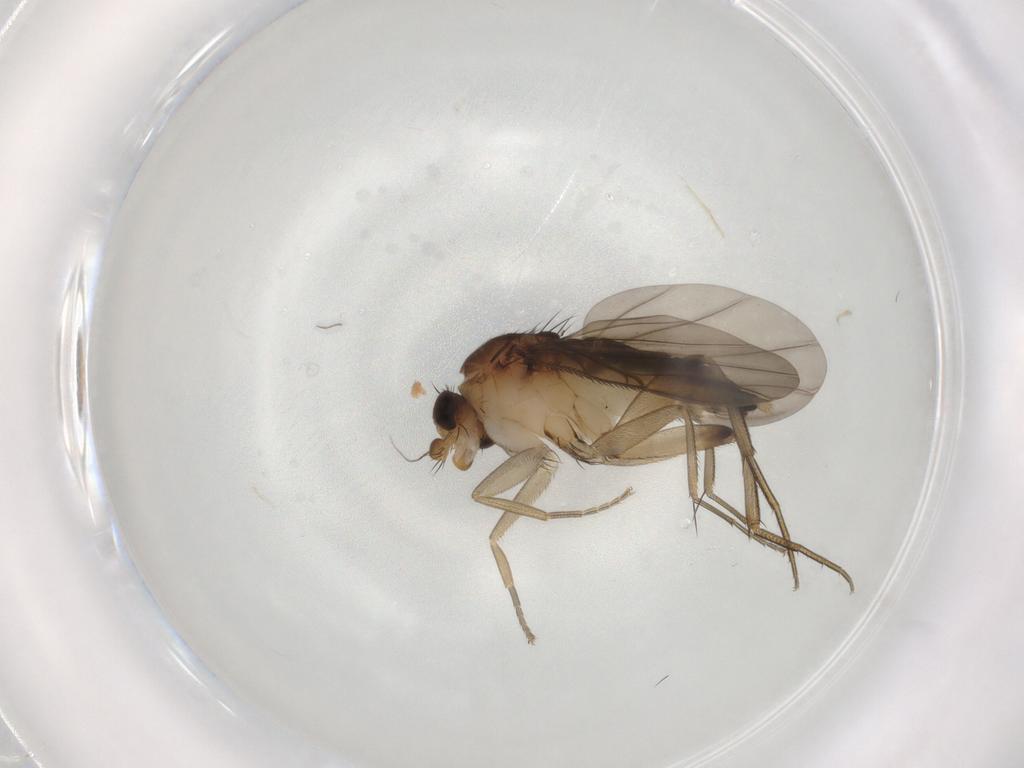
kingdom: Animalia
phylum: Arthropoda
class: Insecta
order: Diptera
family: Phoridae
